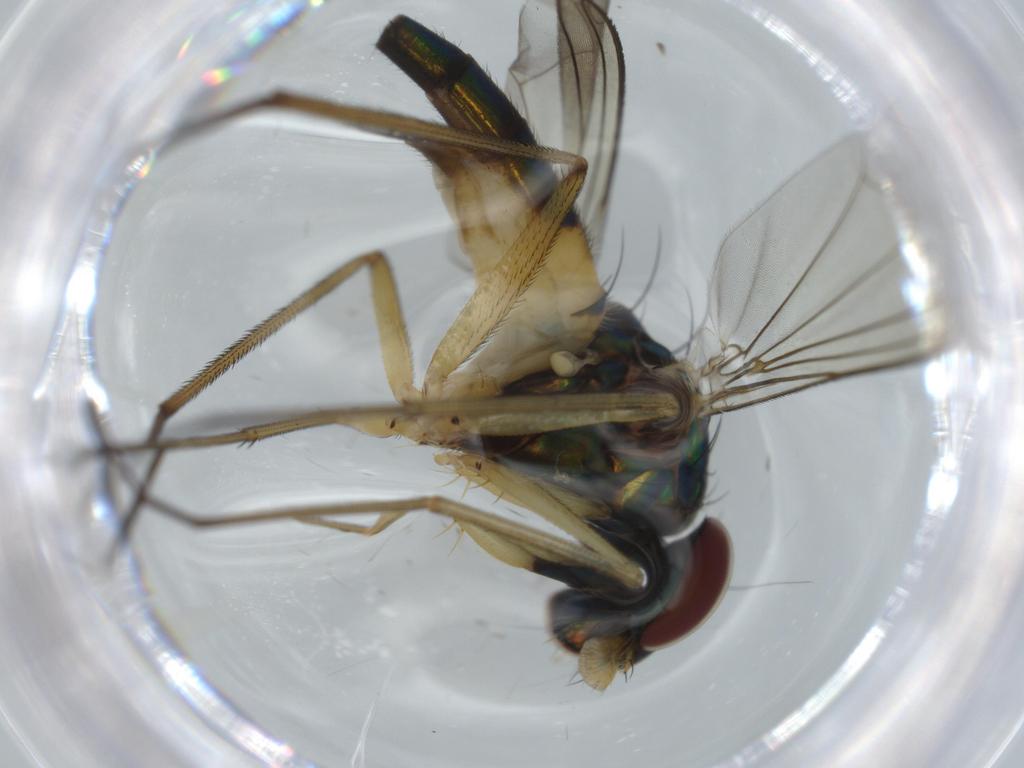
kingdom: Animalia
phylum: Arthropoda
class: Insecta
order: Diptera
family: Dolichopodidae
